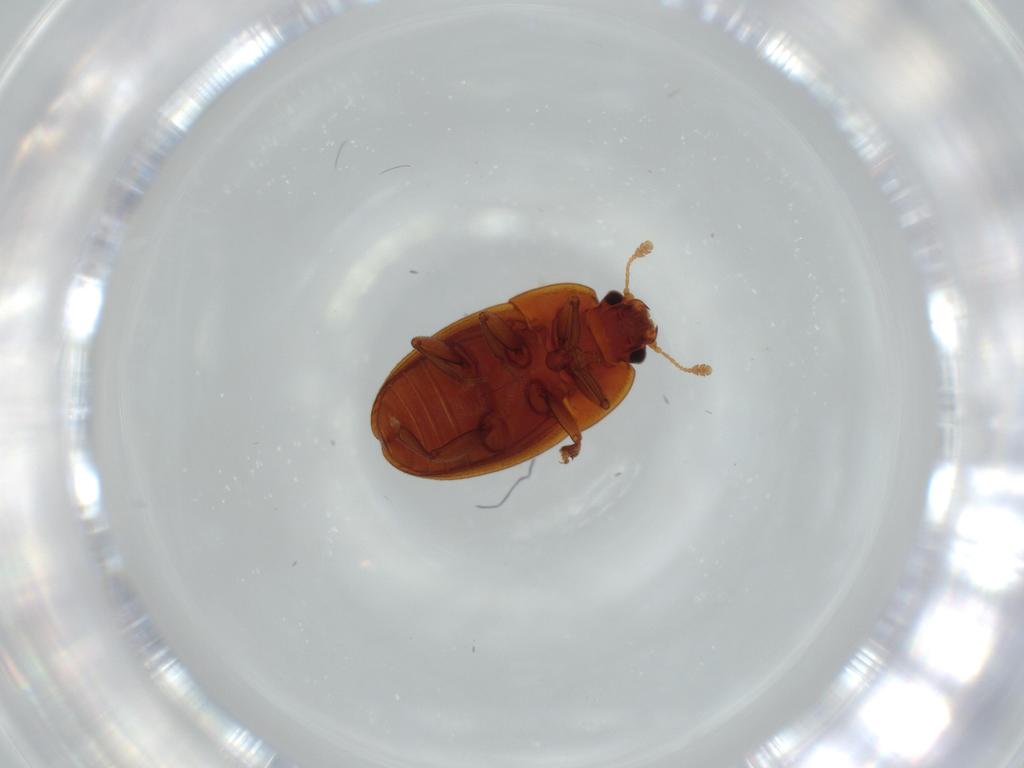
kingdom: Animalia
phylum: Arthropoda
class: Insecta
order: Coleoptera
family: Nitidulidae
